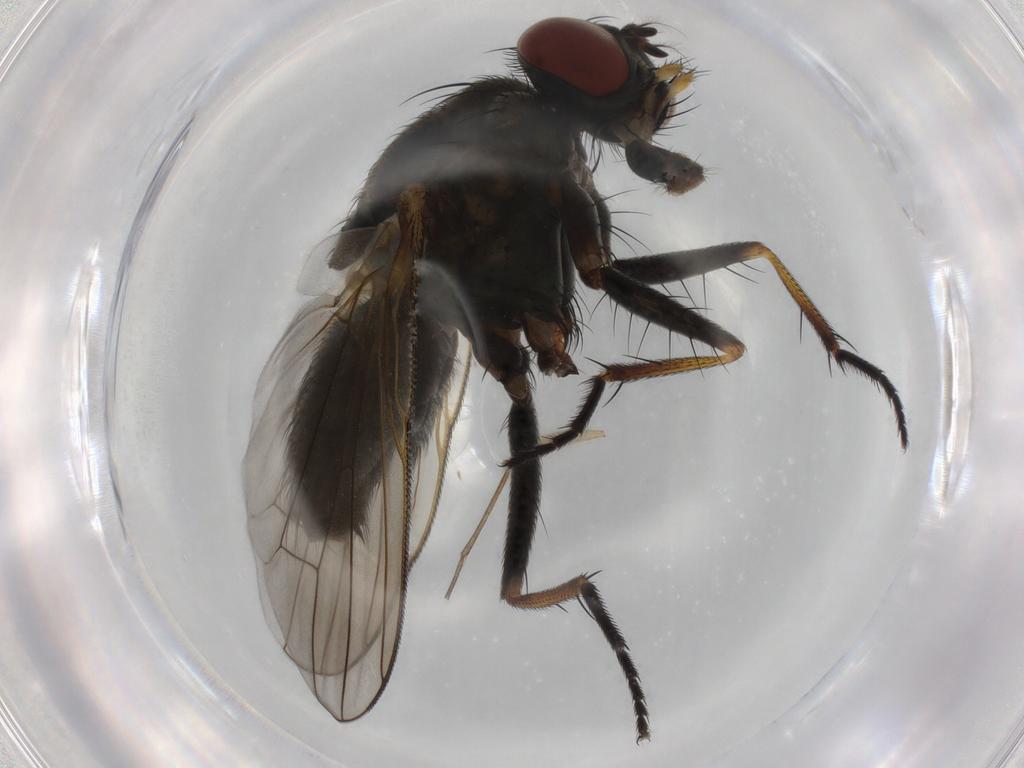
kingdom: Animalia
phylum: Arthropoda
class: Insecta
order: Diptera
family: Muscidae
